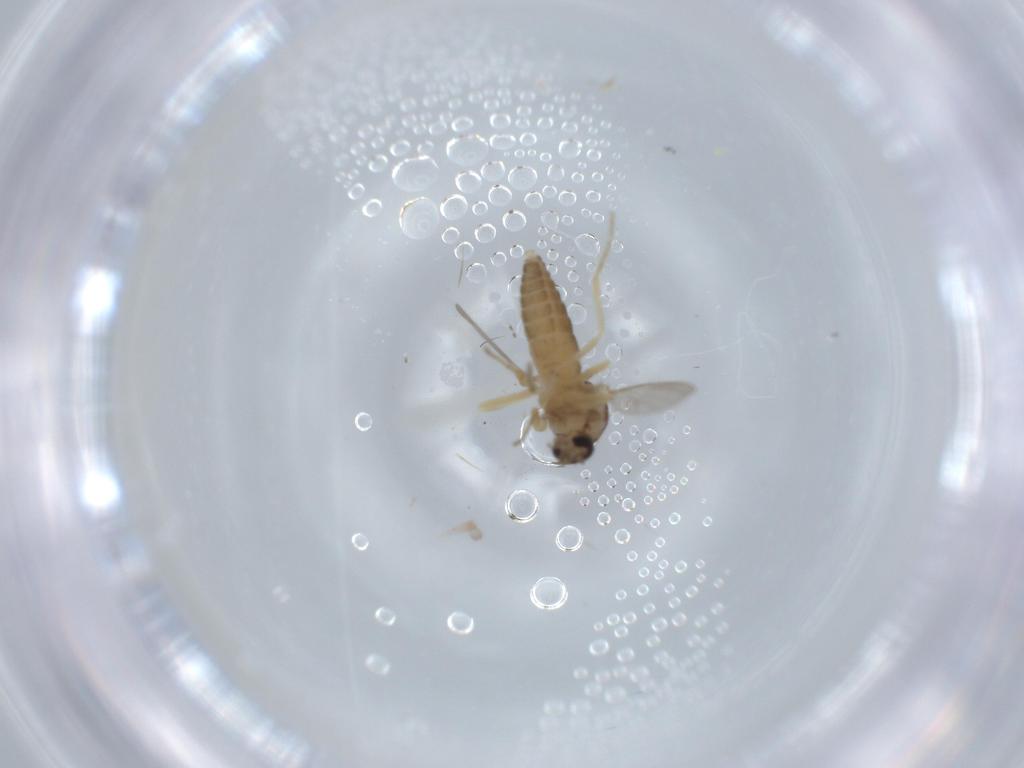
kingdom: Animalia
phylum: Arthropoda
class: Insecta
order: Diptera
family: Ceratopogonidae
